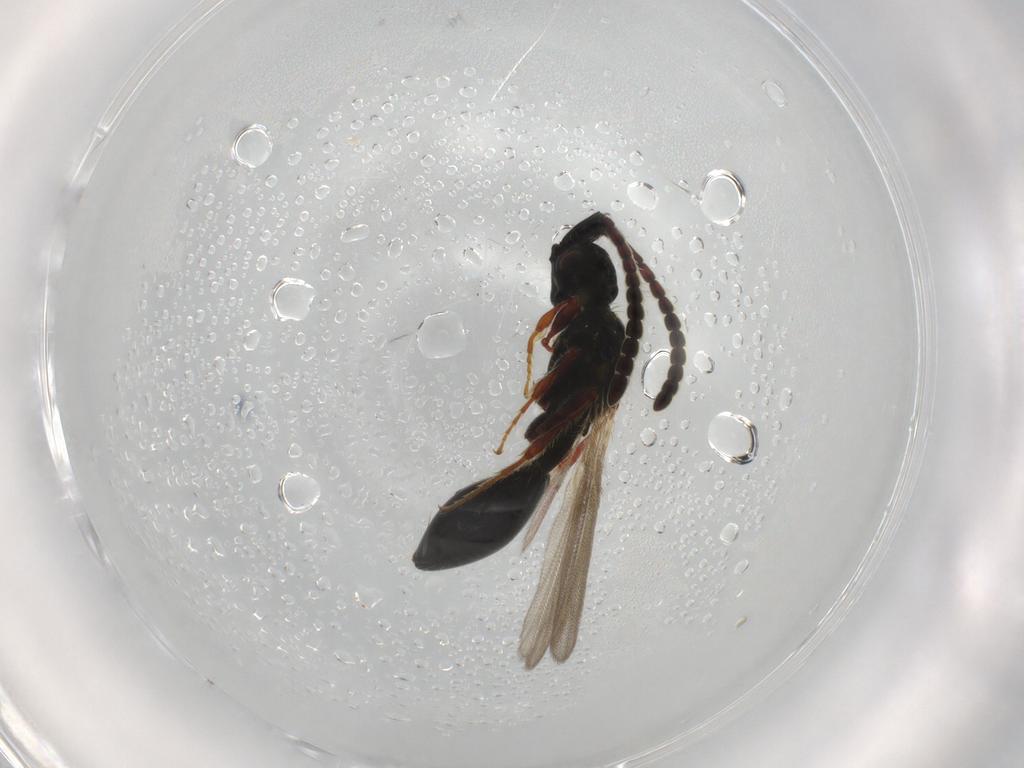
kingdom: Animalia
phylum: Arthropoda
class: Insecta
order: Hymenoptera
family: Diapriidae
